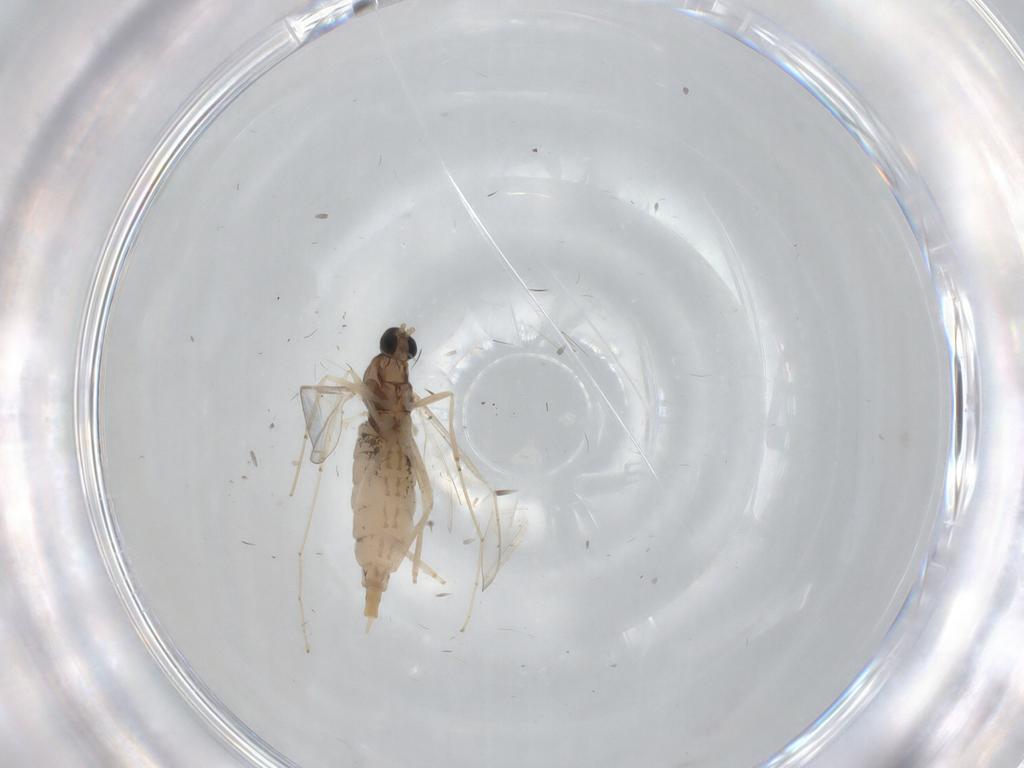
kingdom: Animalia
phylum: Arthropoda
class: Insecta
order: Diptera
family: Cecidomyiidae
